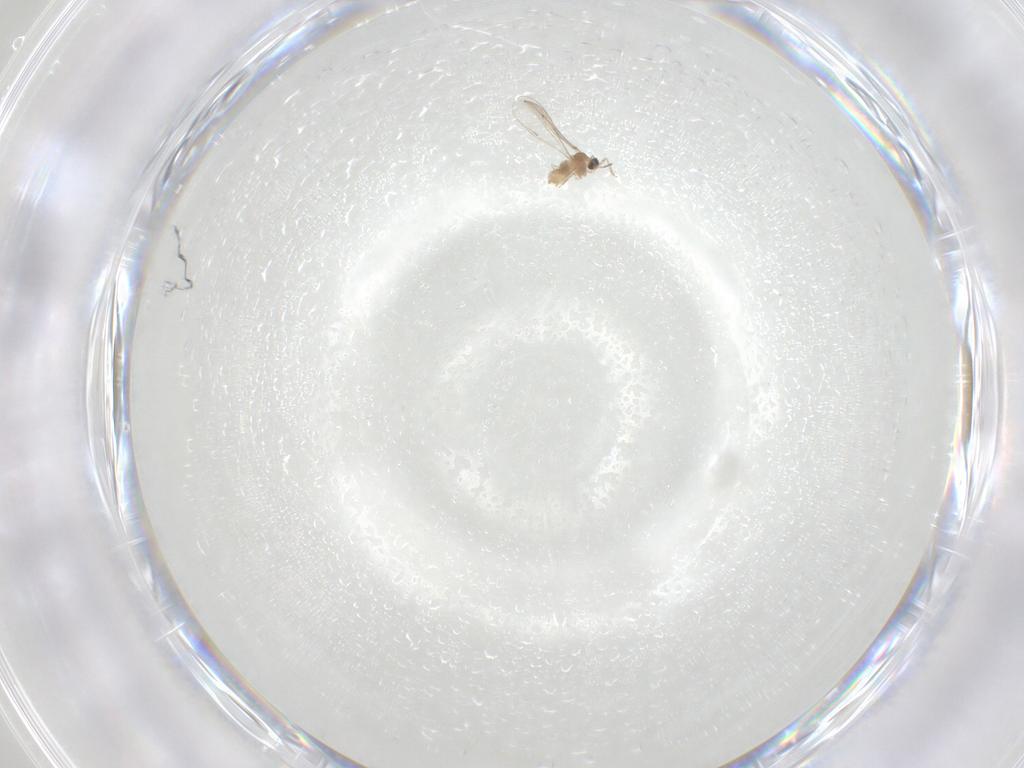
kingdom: Animalia
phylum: Arthropoda
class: Insecta
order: Diptera
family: Cecidomyiidae
